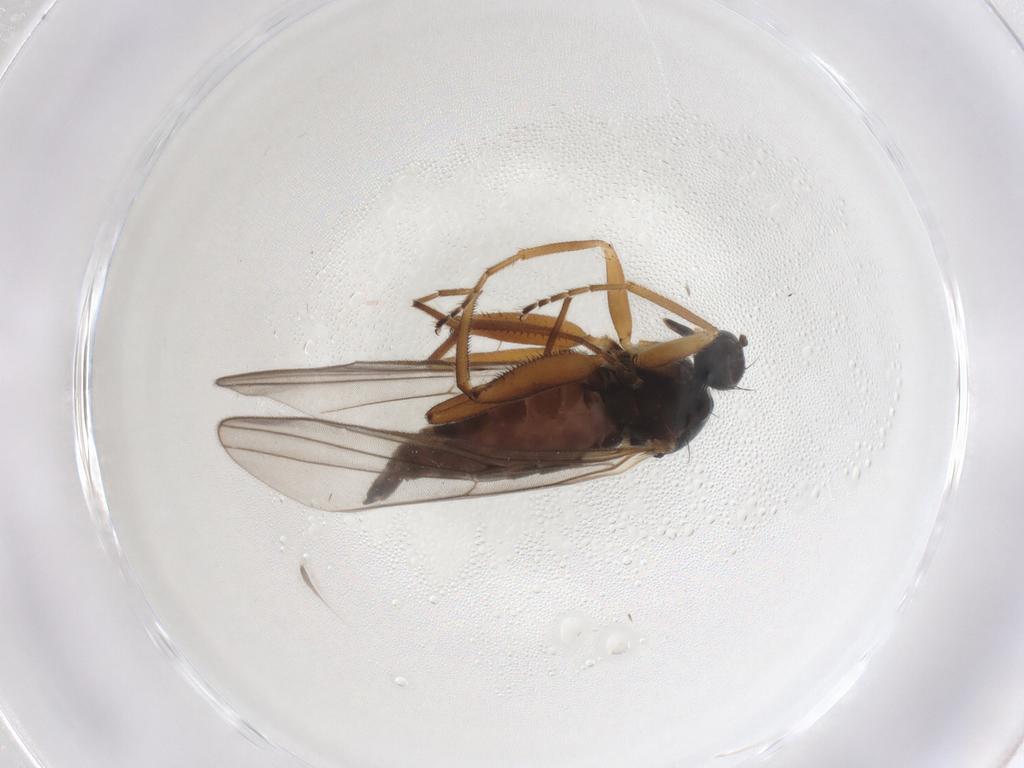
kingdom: Animalia
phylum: Arthropoda
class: Insecta
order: Diptera
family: Hybotidae
